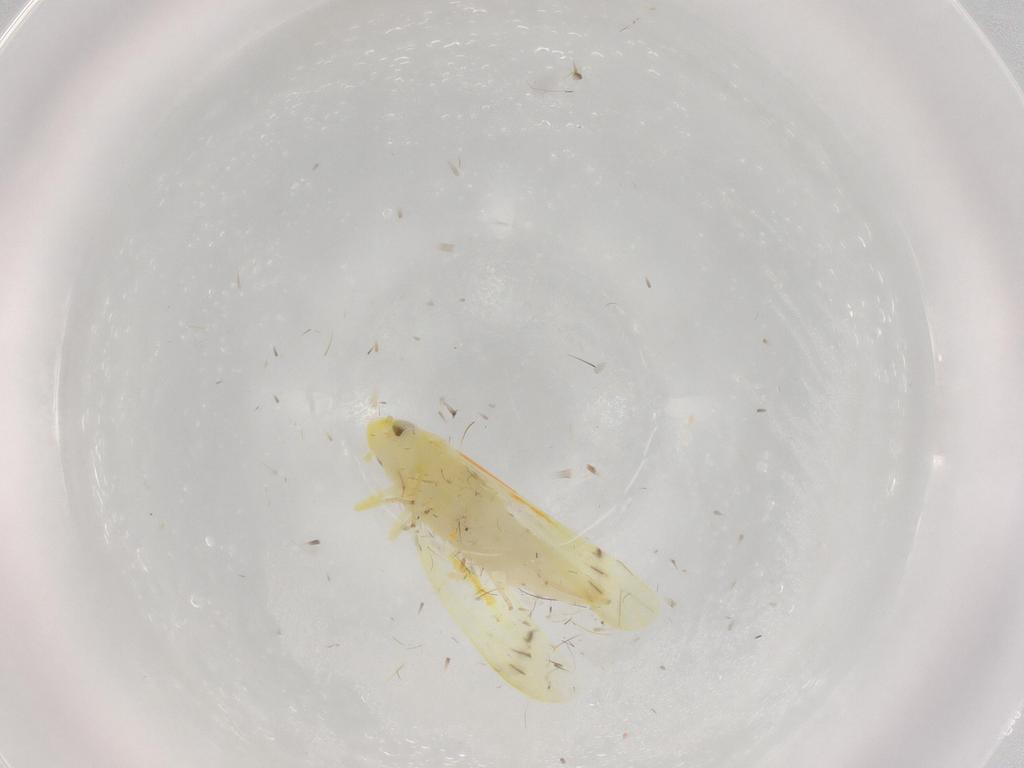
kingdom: Animalia
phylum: Arthropoda
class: Insecta
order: Hemiptera
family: Cicadellidae
